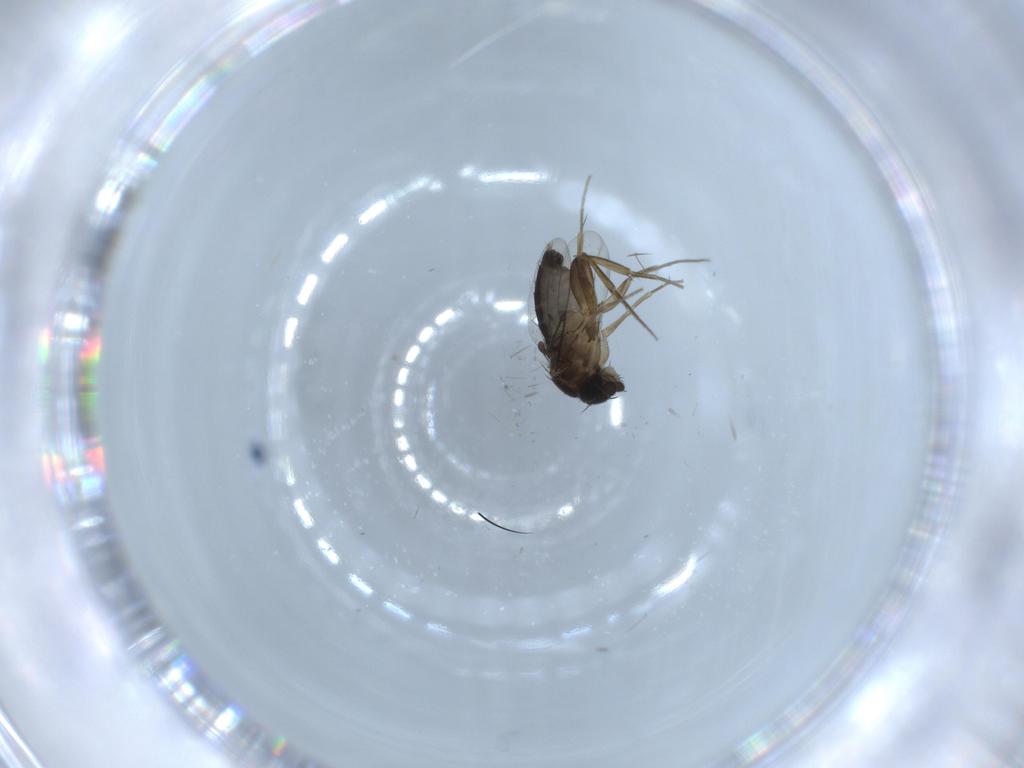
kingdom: Animalia
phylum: Arthropoda
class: Insecta
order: Diptera
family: Phoridae
